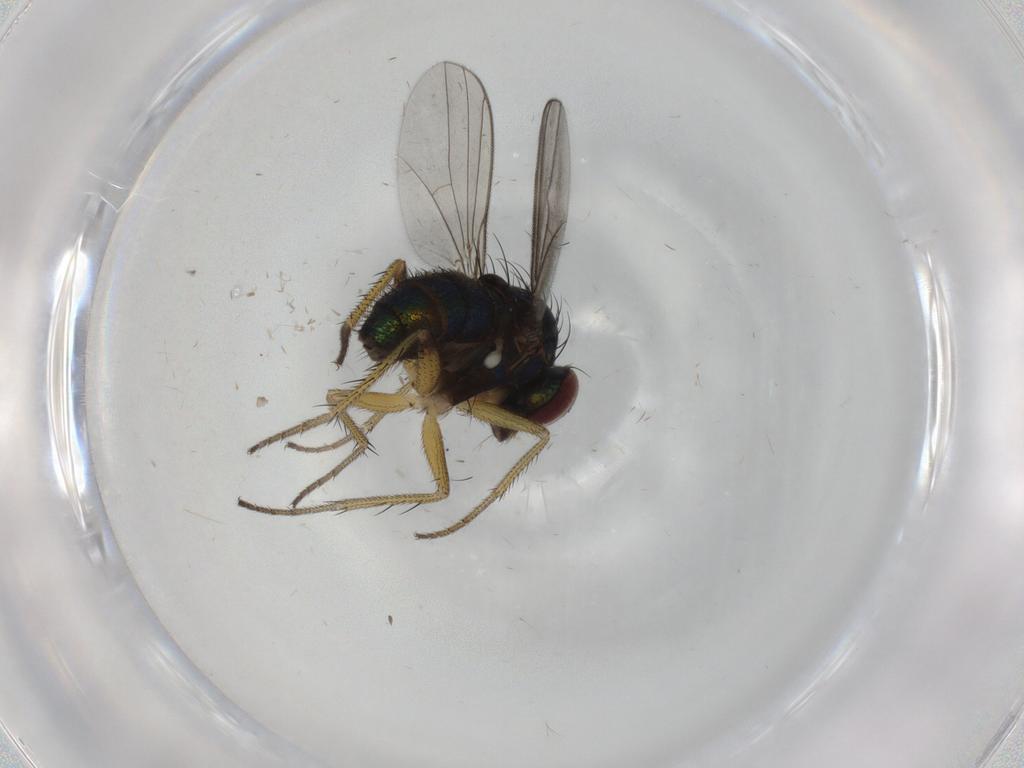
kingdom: Animalia
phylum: Arthropoda
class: Insecta
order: Diptera
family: Dolichopodidae
